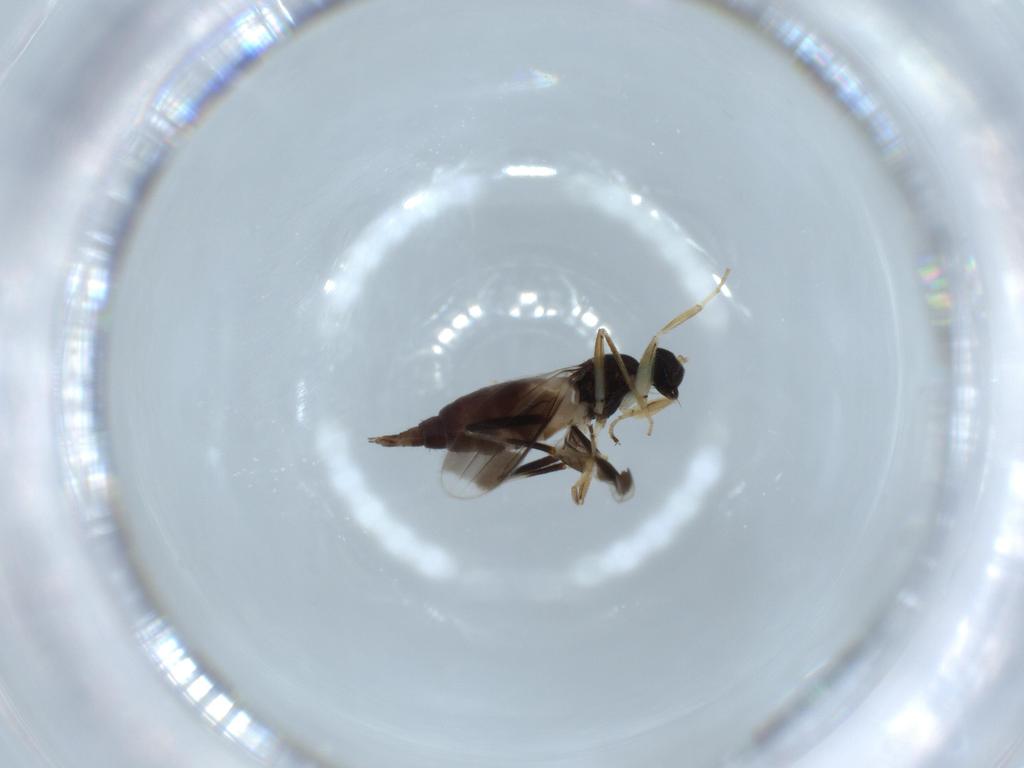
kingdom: Animalia
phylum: Arthropoda
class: Insecta
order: Diptera
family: Hybotidae
